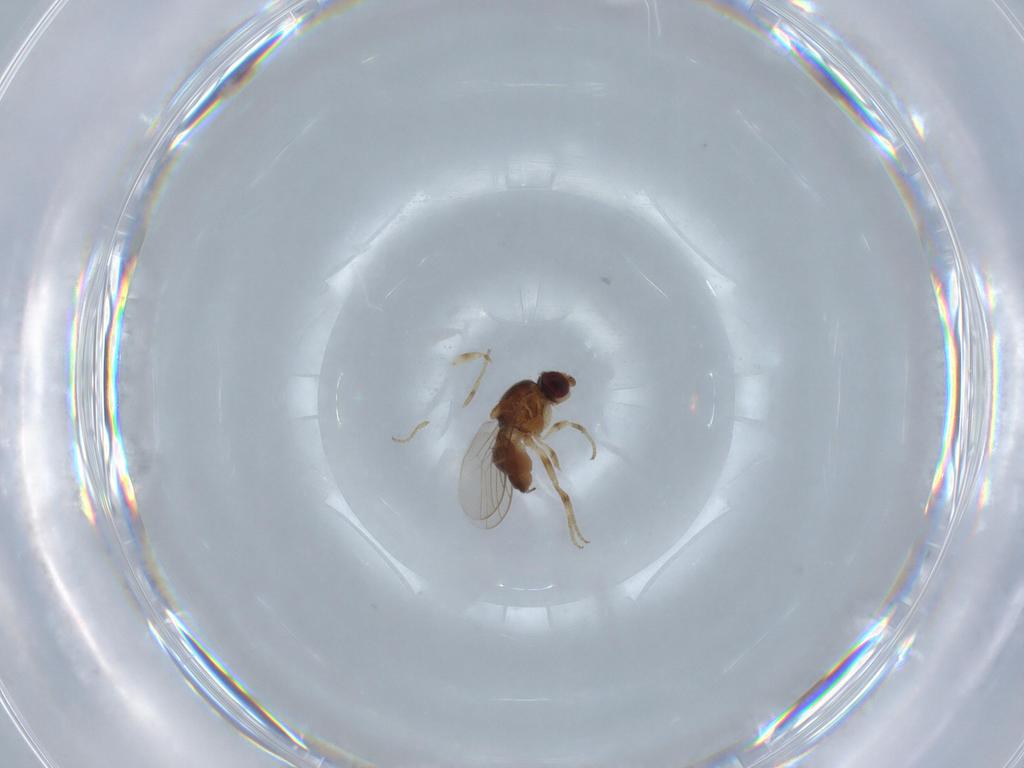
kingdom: Animalia
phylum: Arthropoda
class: Insecta
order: Diptera
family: Chloropidae
